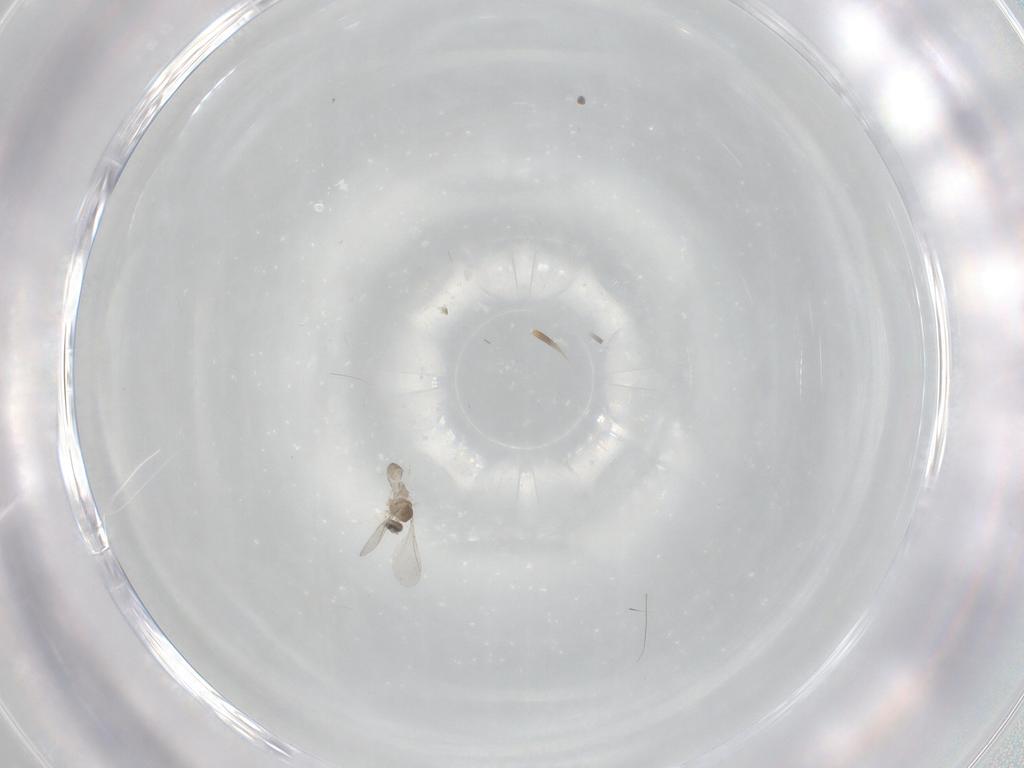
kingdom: Animalia
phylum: Arthropoda
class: Insecta
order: Diptera
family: Cecidomyiidae
